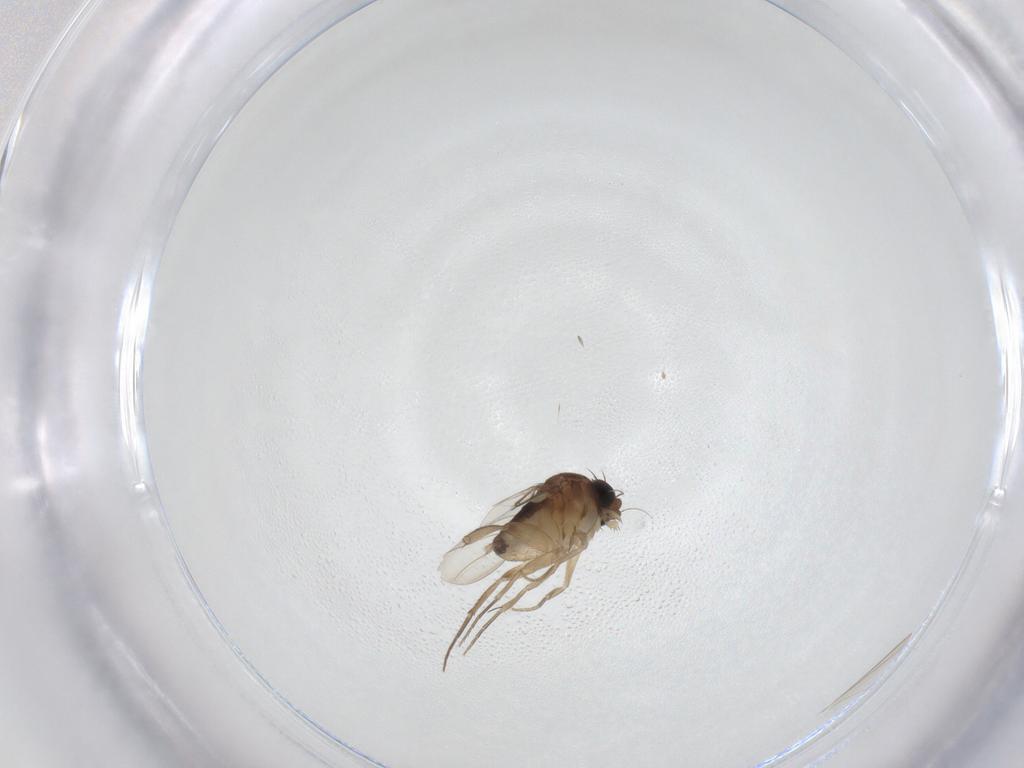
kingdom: Animalia
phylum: Arthropoda
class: Insecta
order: Diptera
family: Phoridae
